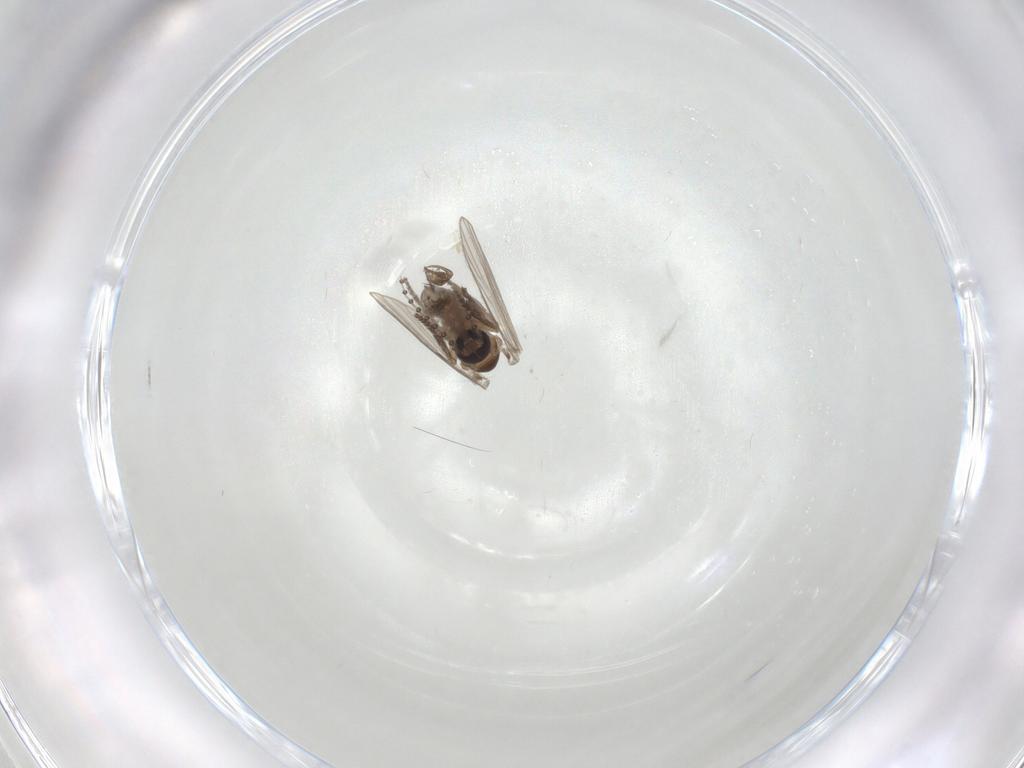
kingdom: Animalia
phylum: Arthropoda
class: Insecta
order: Diptera
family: Psychodidae
